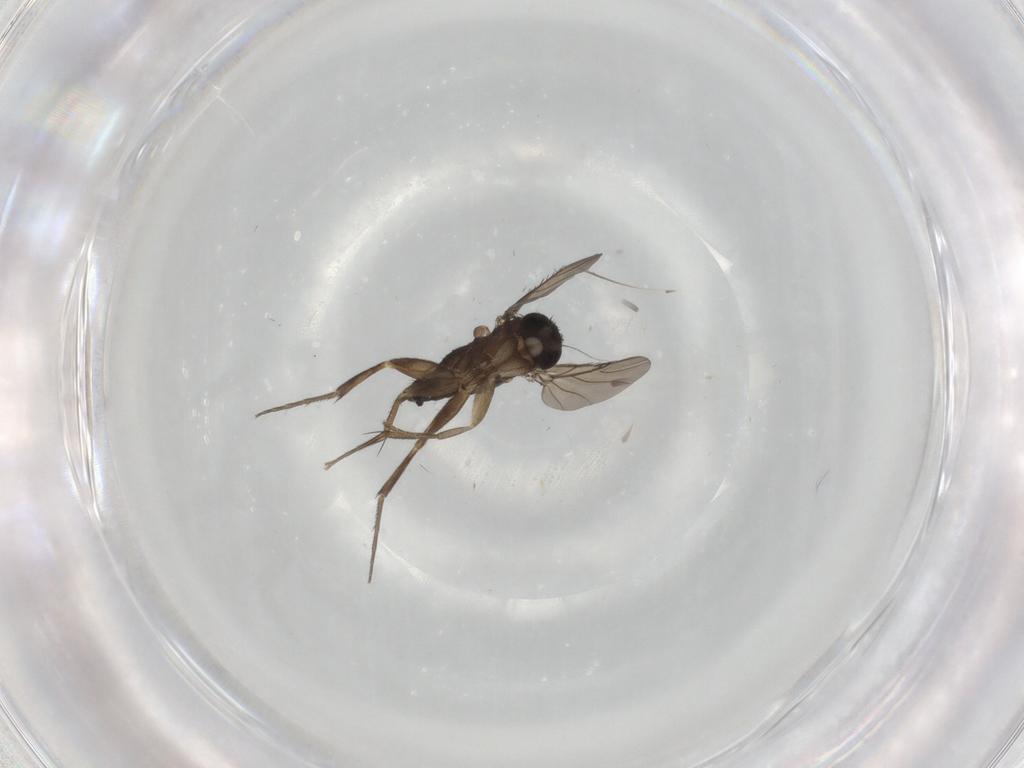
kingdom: Animalia
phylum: Arthropoda
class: Insecta
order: Diptera
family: Phoridae
